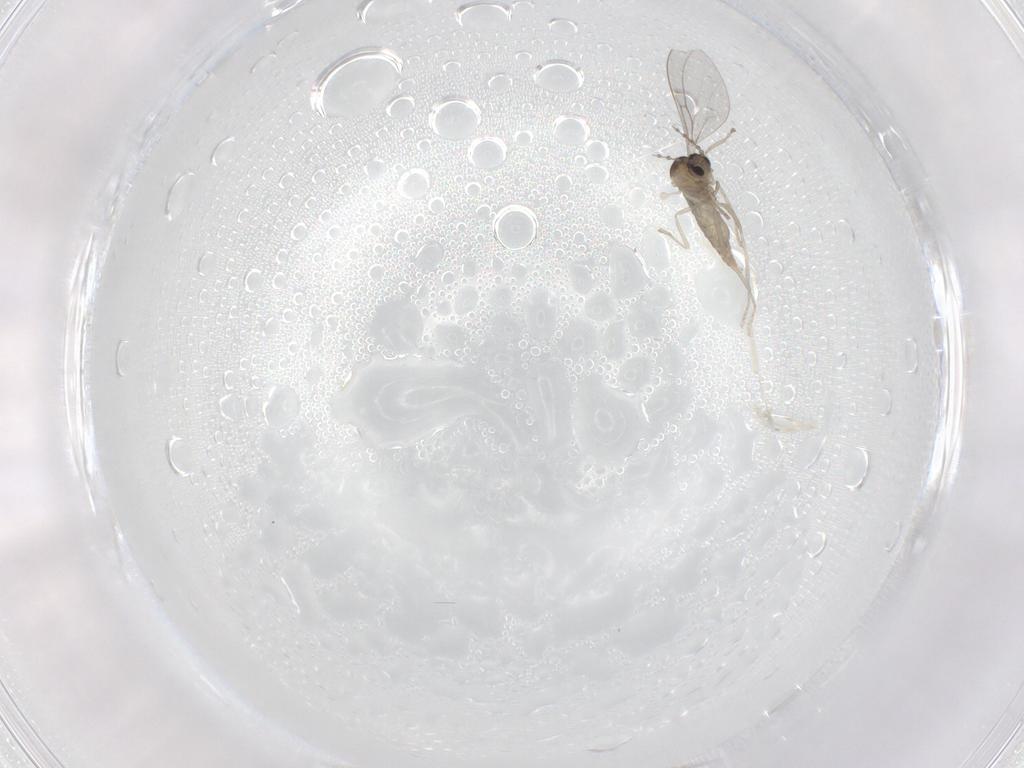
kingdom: Animalia
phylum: Arthropoda
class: Insecta
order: Diptera
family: Cecidomyiidae
